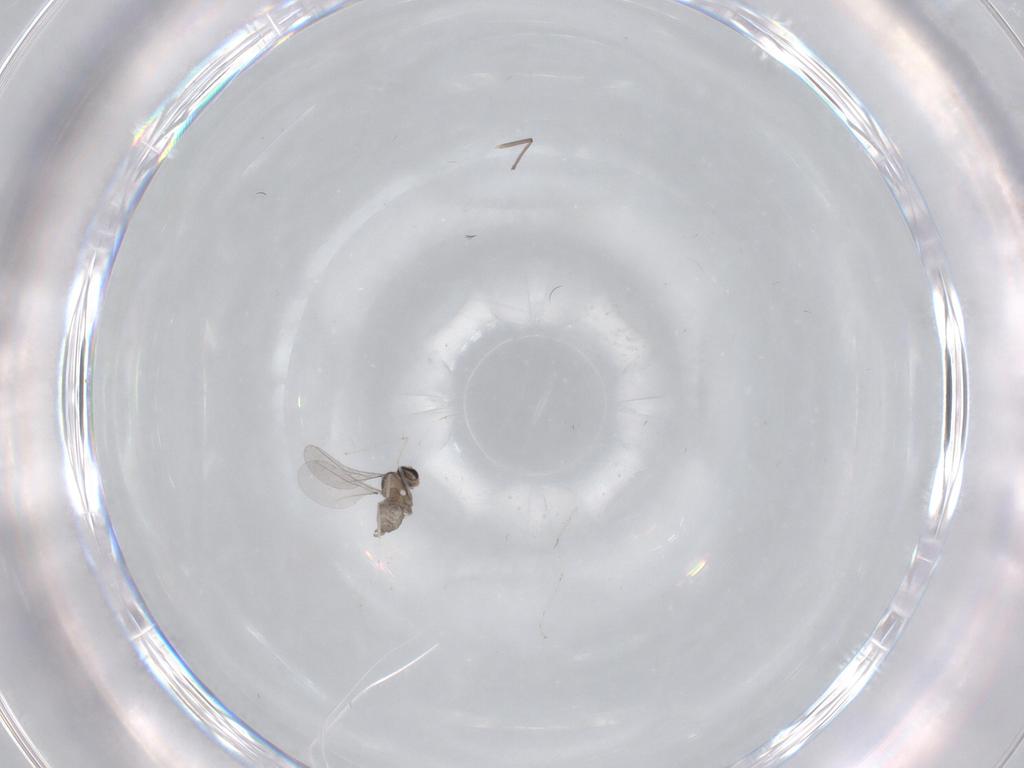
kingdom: Animalia
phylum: Arthropoda
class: Insecta
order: Diptera
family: Cecidomyiidae
